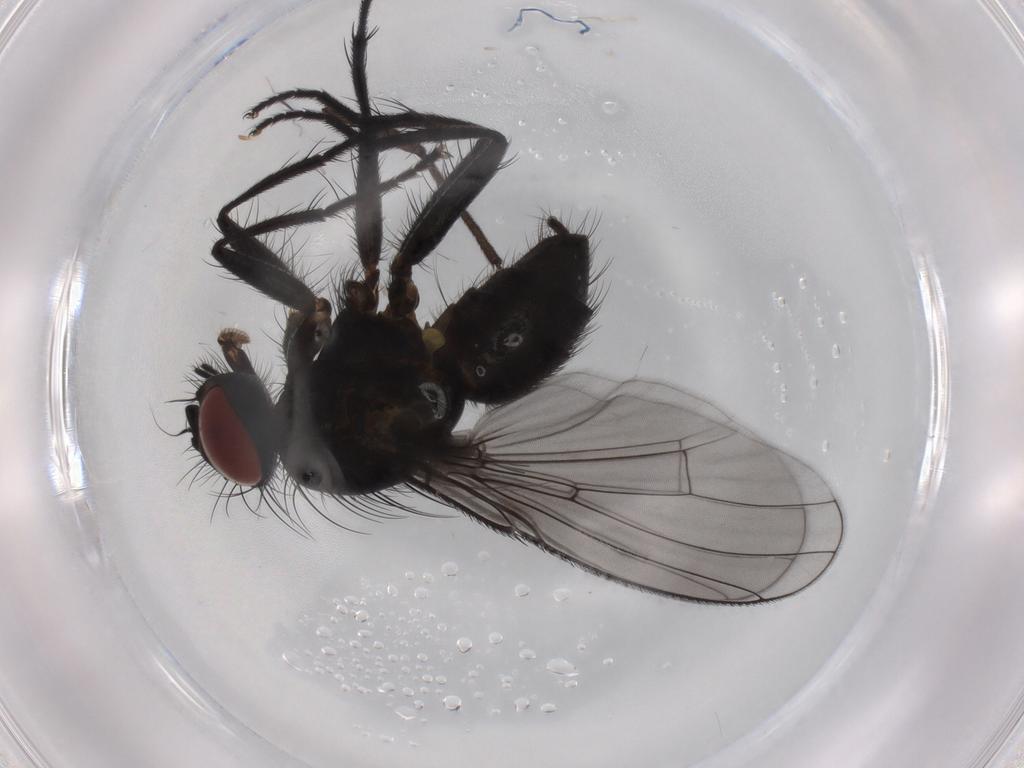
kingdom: Animalia
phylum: Arthropoda
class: Insecta
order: Diptera
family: Muscidae
